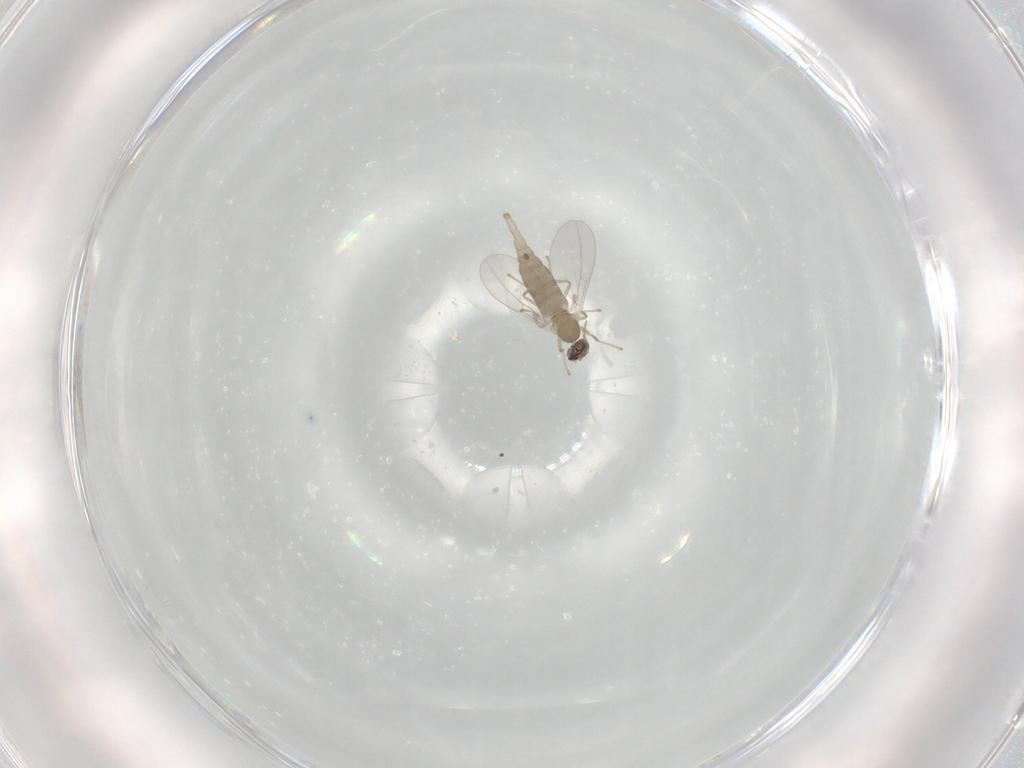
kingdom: Animalia
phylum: Arthropoda
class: Insecta
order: Diptera
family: Cecidomyiidae
